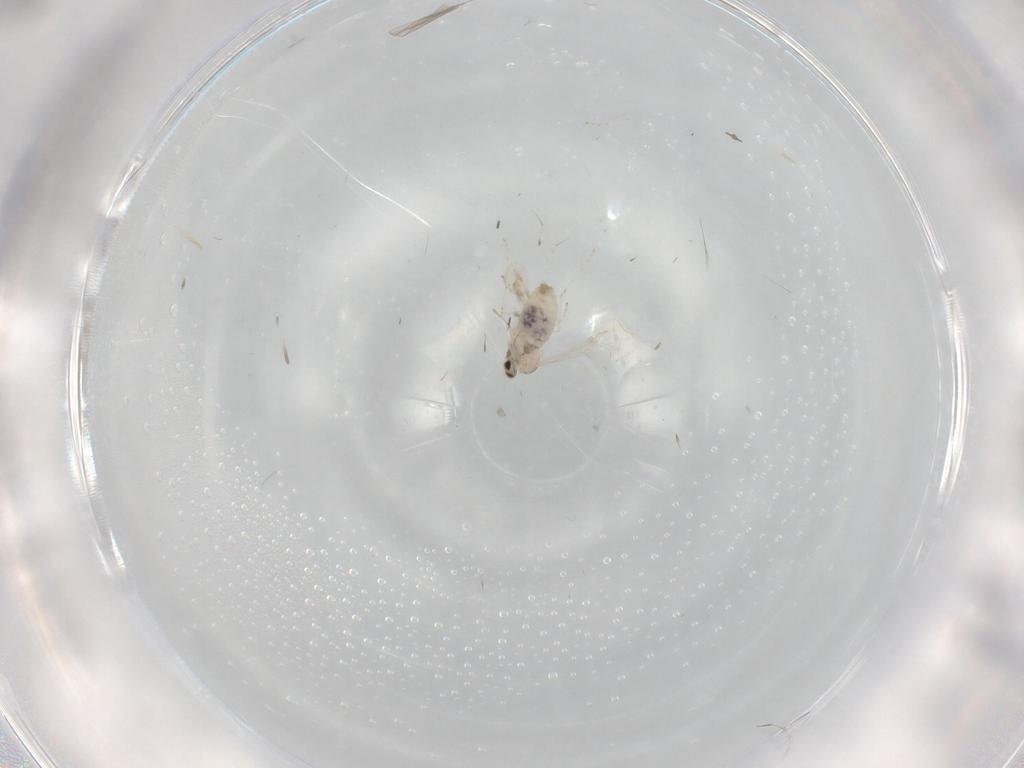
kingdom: Animalia
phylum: Arthropoda
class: Insecta
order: Diptera
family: Cecidomyiidae
